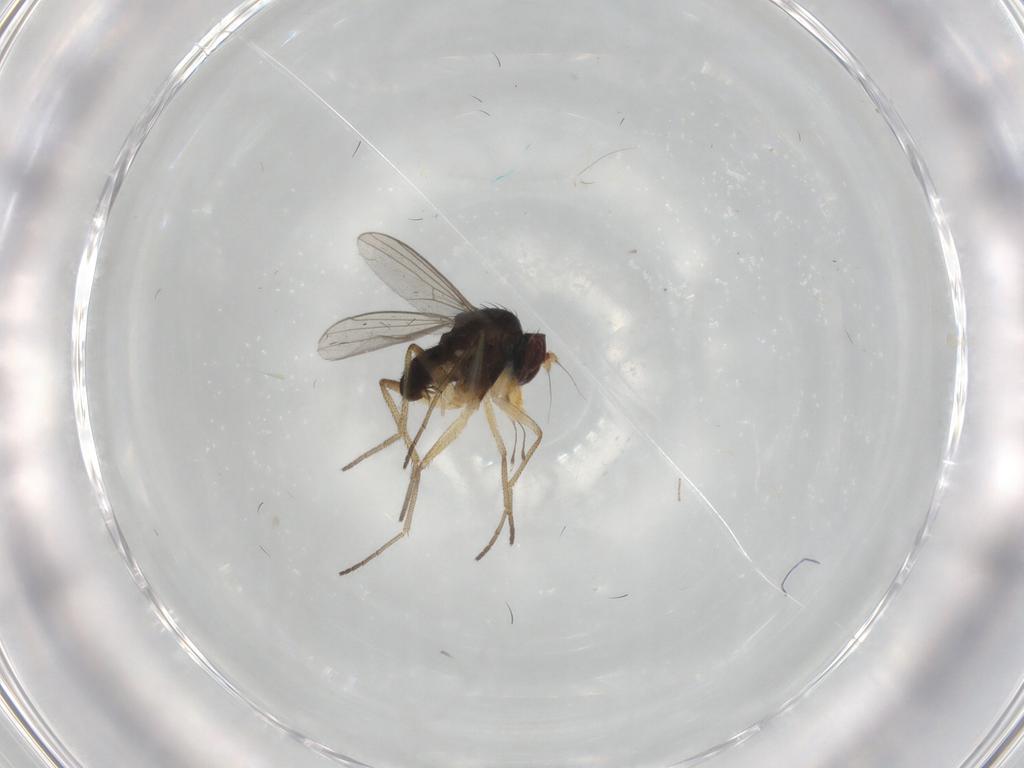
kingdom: Animalia
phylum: Arthropoda
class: Insecta
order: Diptera
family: Dolichopodidae
